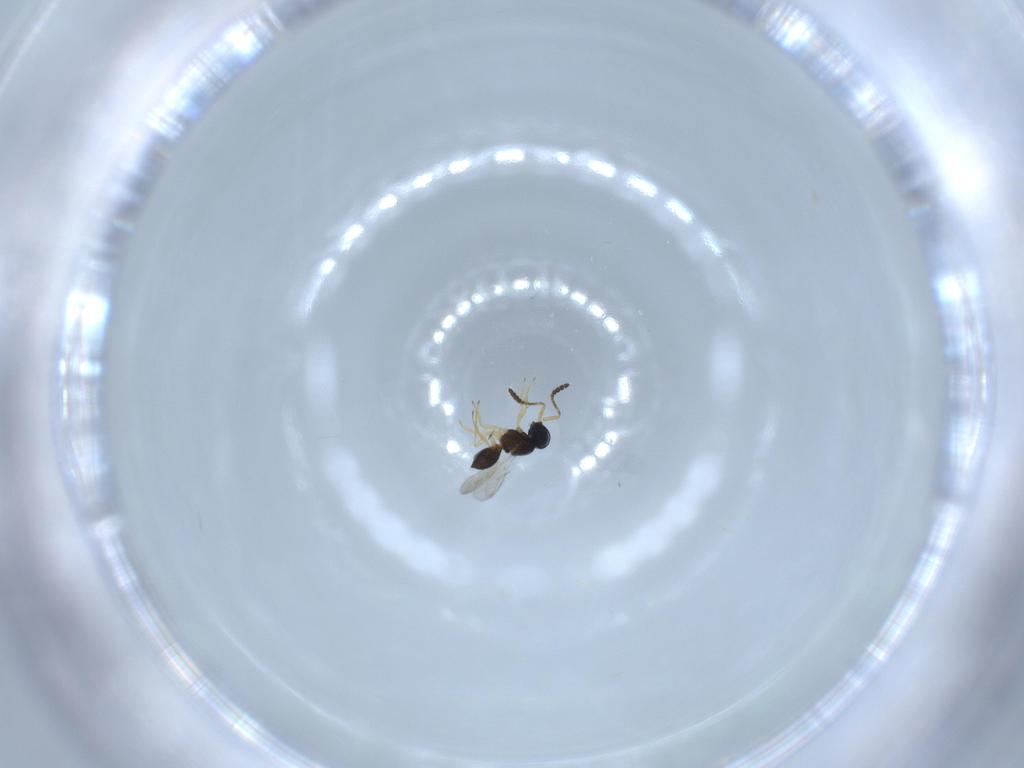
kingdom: Animalia
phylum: Arthropoda
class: Insecta
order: Hymenoptera
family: Scelionidae
